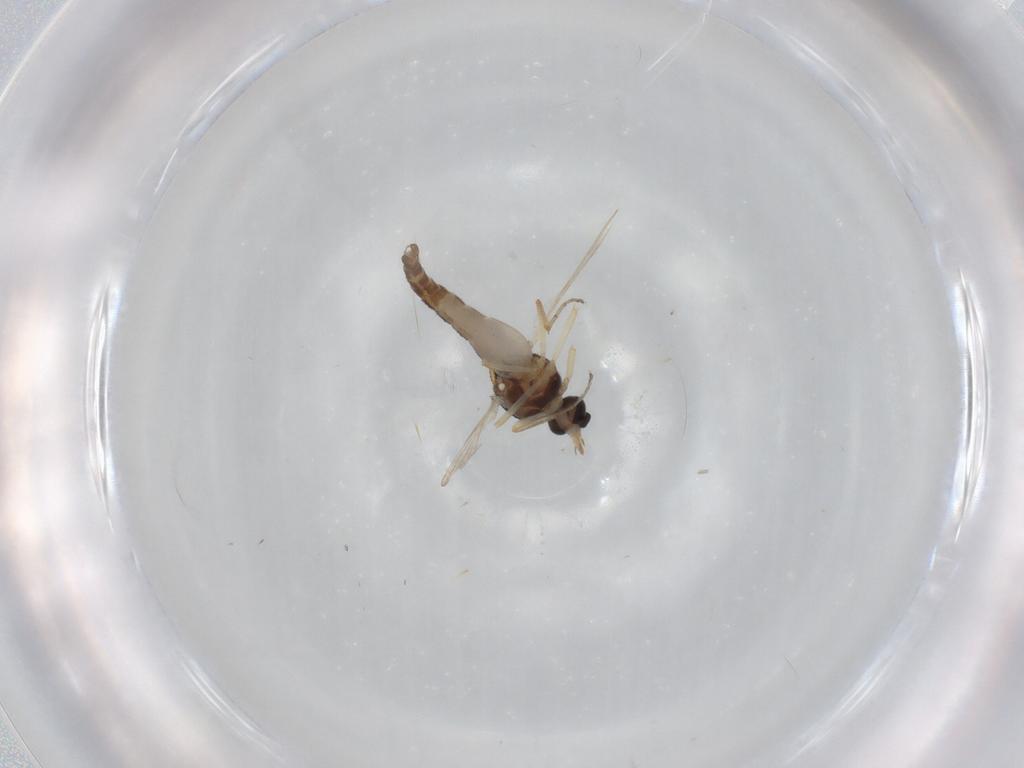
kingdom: Animalia
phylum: Arthropoda
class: Insecta
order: Diptera
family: Ceratopogonidae
